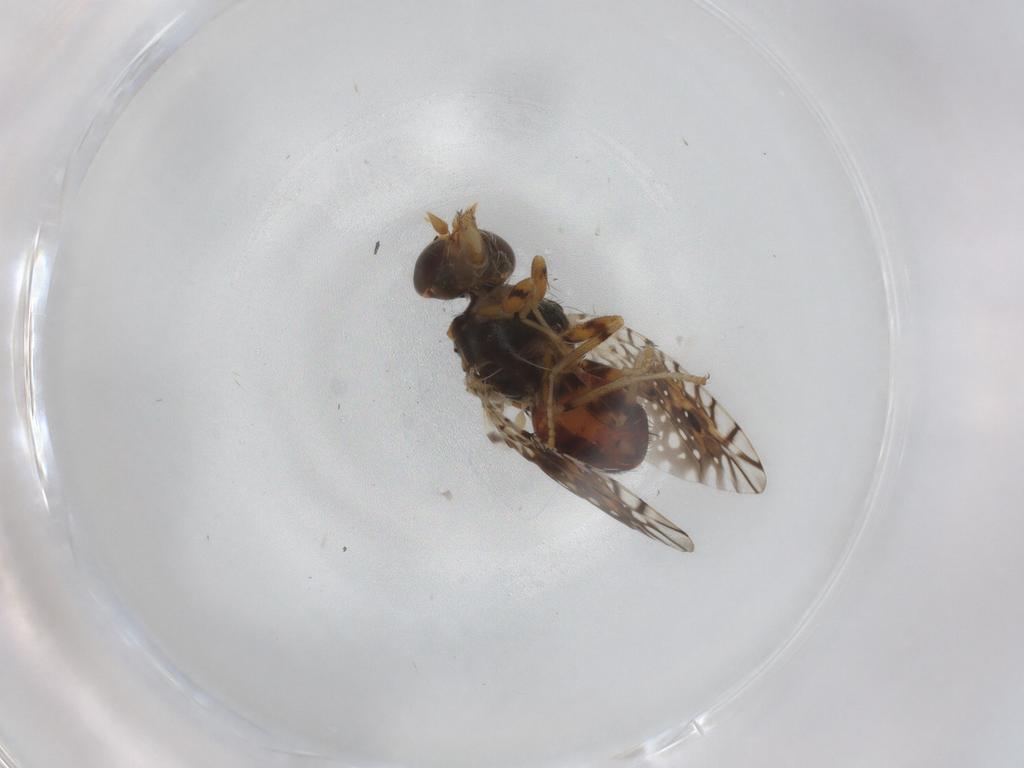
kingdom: Animalia
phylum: Arthropoda
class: Insecta
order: Diptera
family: Tephritidae
